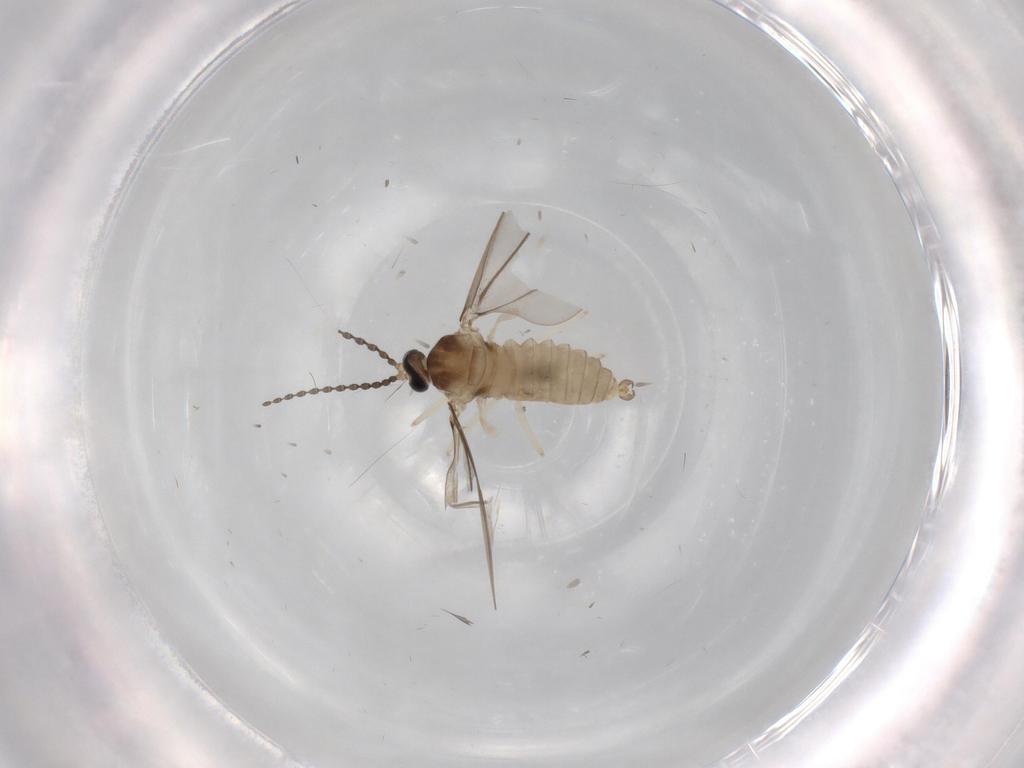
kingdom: Animalia
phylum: Arthropoda
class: Insecta
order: Diptera
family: Cecidomyiidae
